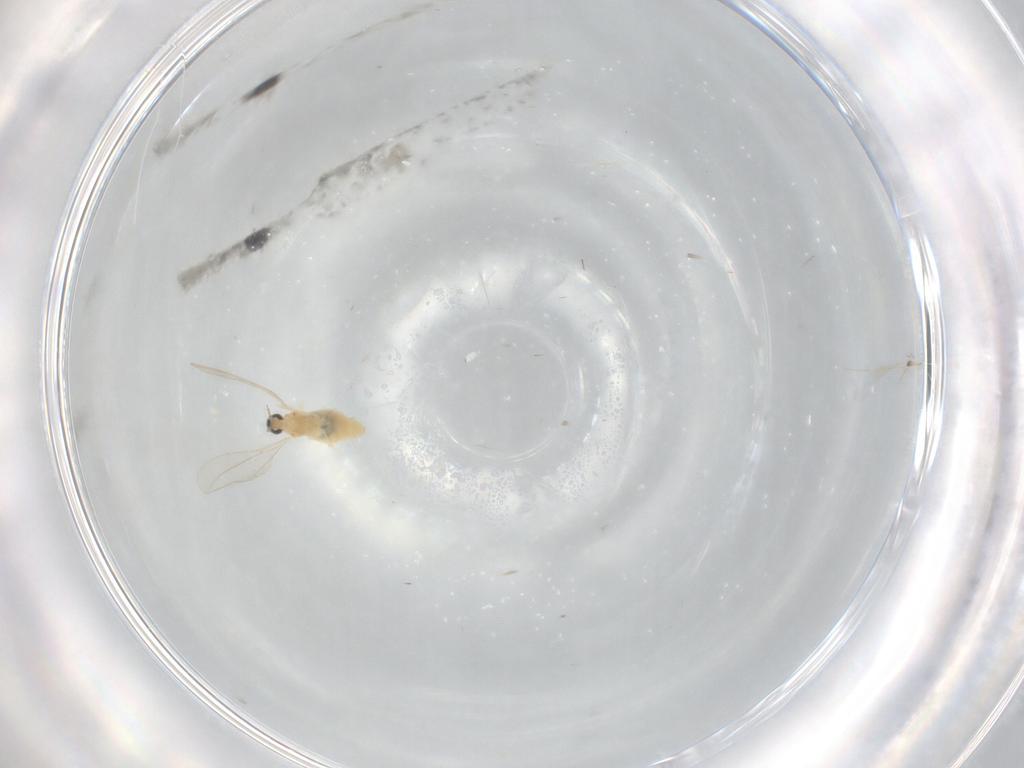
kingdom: Animalia
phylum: Arthropoda
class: Insecta
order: Diptera
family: Cecidomyiidae
